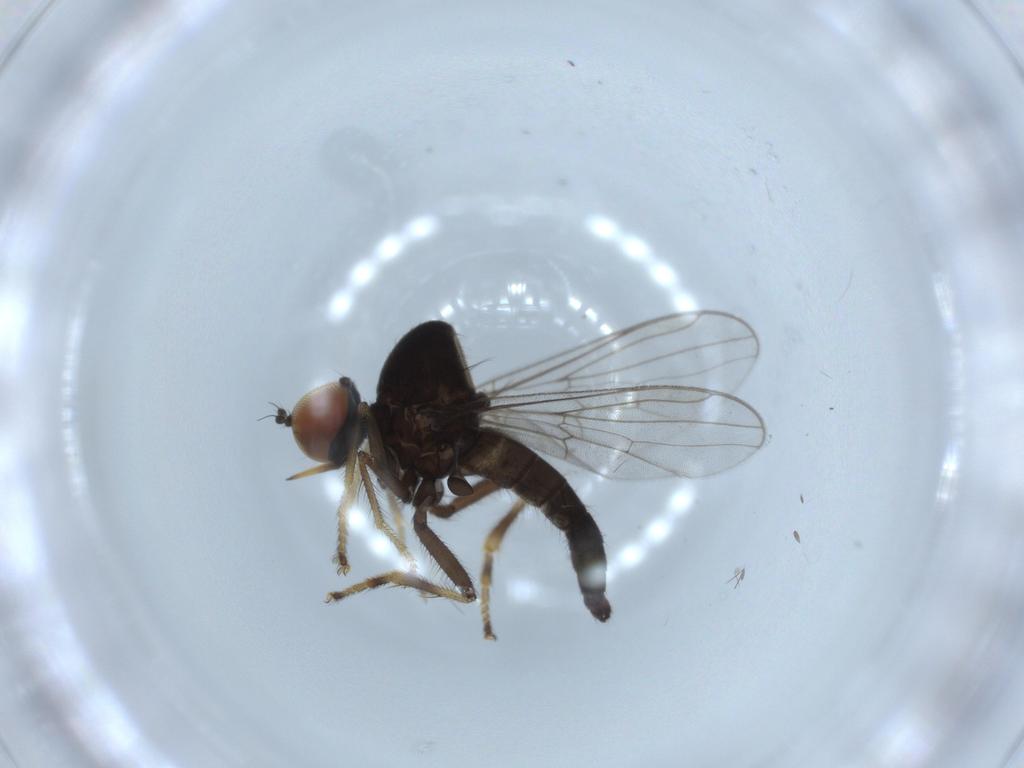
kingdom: Animalia
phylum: Arthropoda
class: Insecta
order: Diptera
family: Hybotidae
